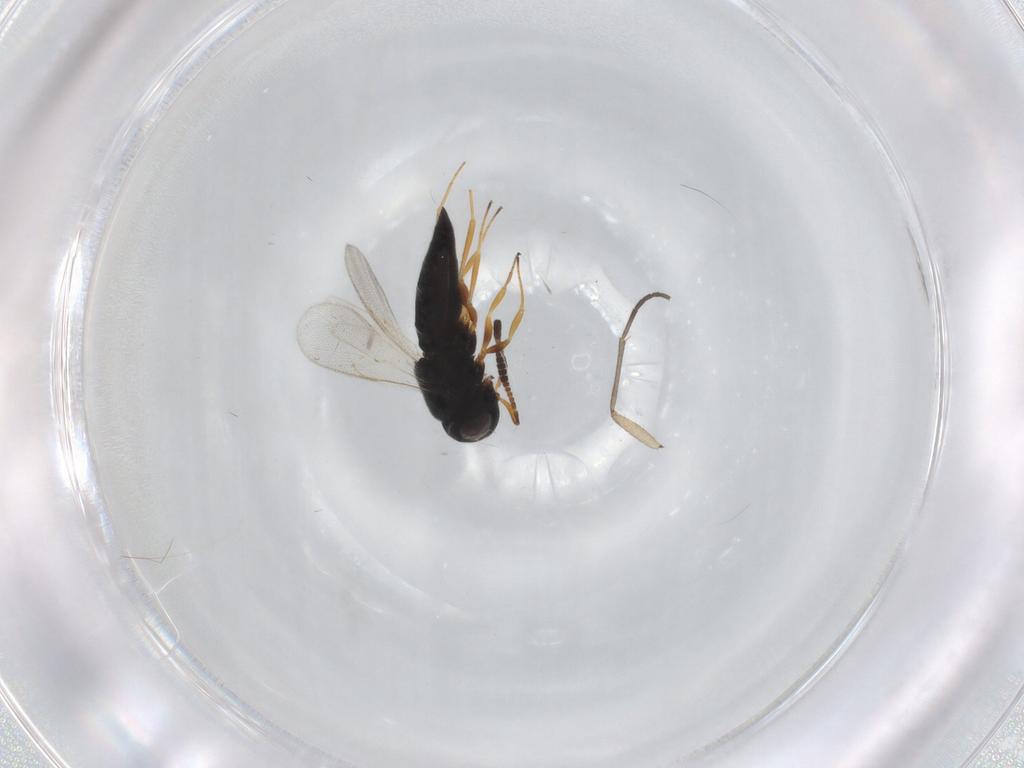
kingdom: Animalia
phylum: Arthropoda
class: Insecta
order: Hymenoptera
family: Scelionidae
